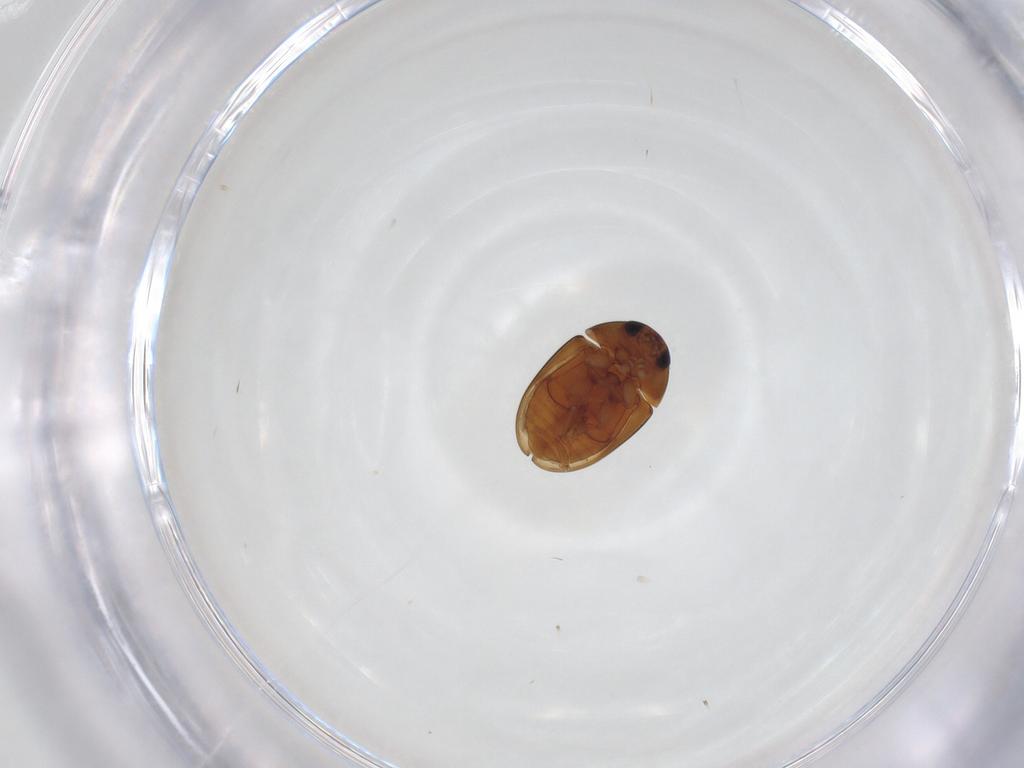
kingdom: Animalia
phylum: Arthropoda
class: Insecta
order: Coleoptera
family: Phalacridae
